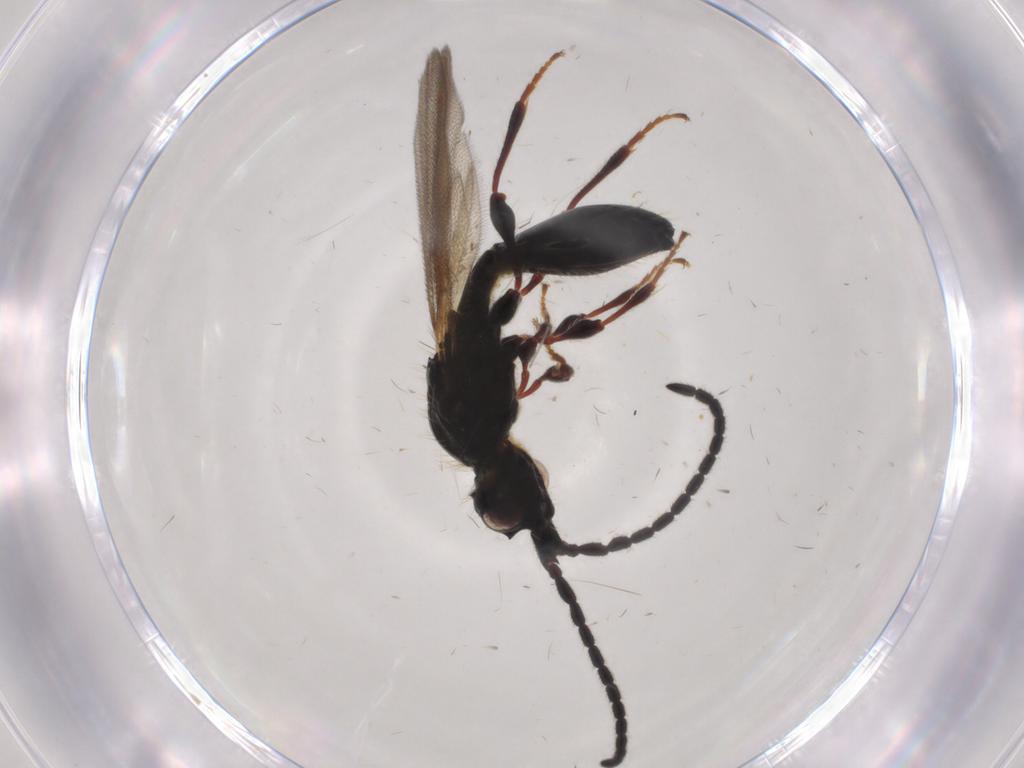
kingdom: Animalia
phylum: Arthropoda
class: Insecta
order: Hymenoptera
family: Diapriidae
